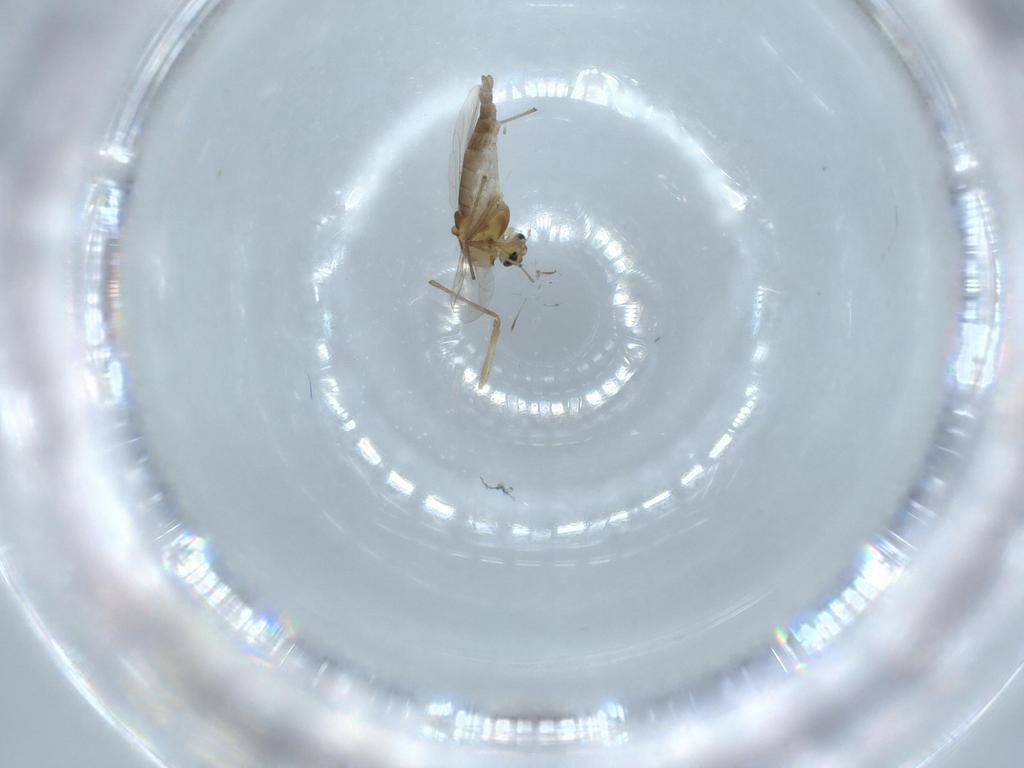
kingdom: Animalia
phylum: Arthropoda
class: Insecta
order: Diptera
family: Chironomidae
